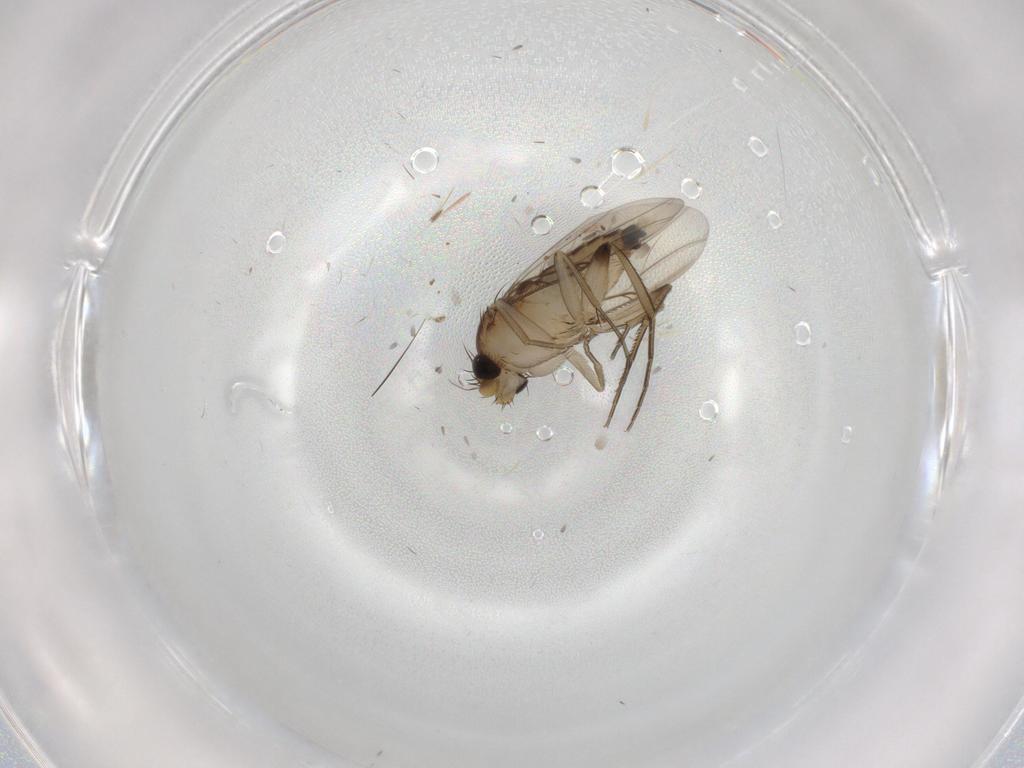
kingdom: Animalia
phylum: Arthropoda
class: Insecta
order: Diptera
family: Phoridae
